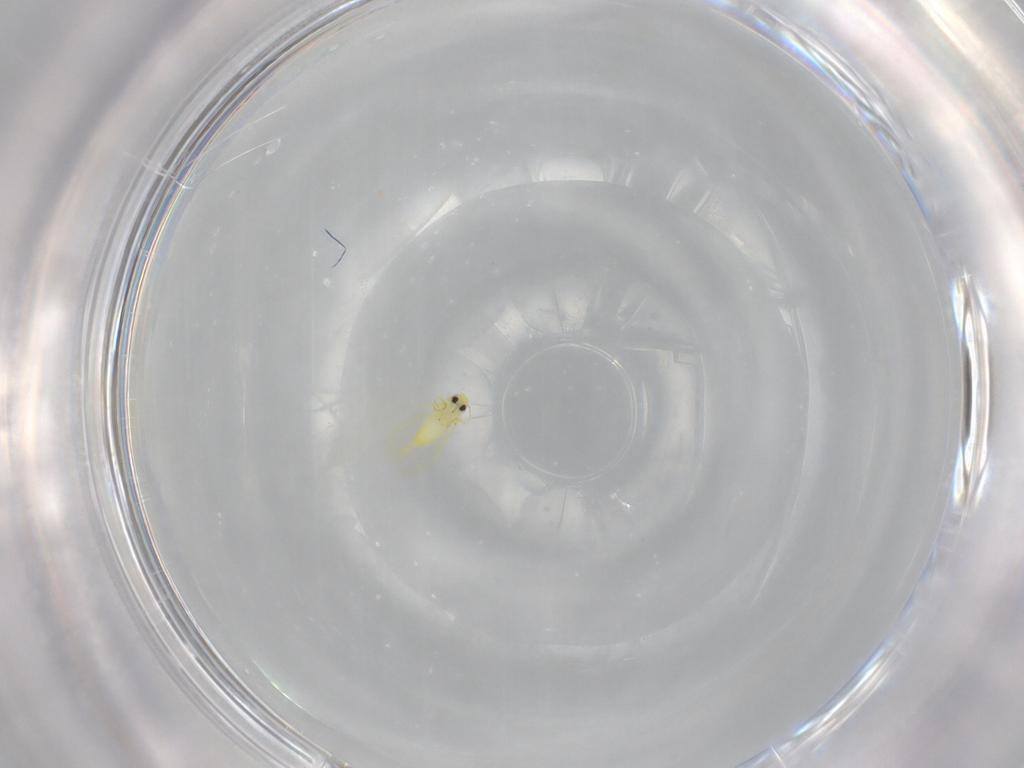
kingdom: Animalia
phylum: Arthropoda
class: Insecta
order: Hemiptera
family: Aleyrodidae
